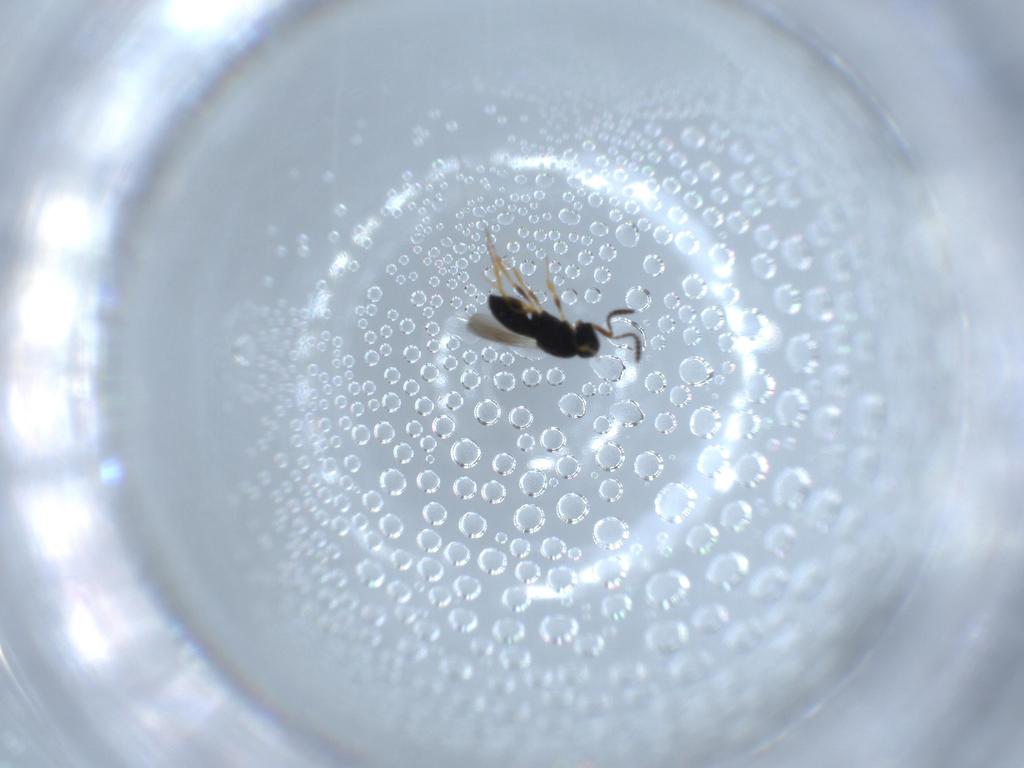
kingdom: Animalia
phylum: Arthropoda
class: Insecta
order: Hymenoptera
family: Scelionidae
